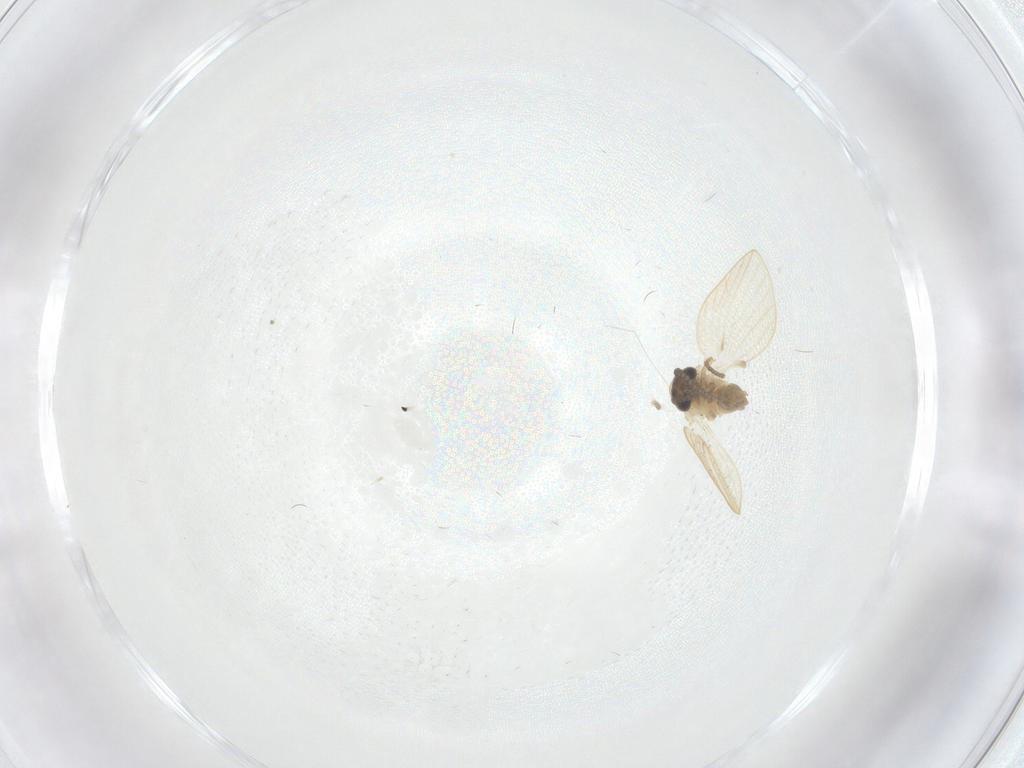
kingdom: Animalia
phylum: Arthropoda
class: Insecta
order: Diptera
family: Psychodidae
